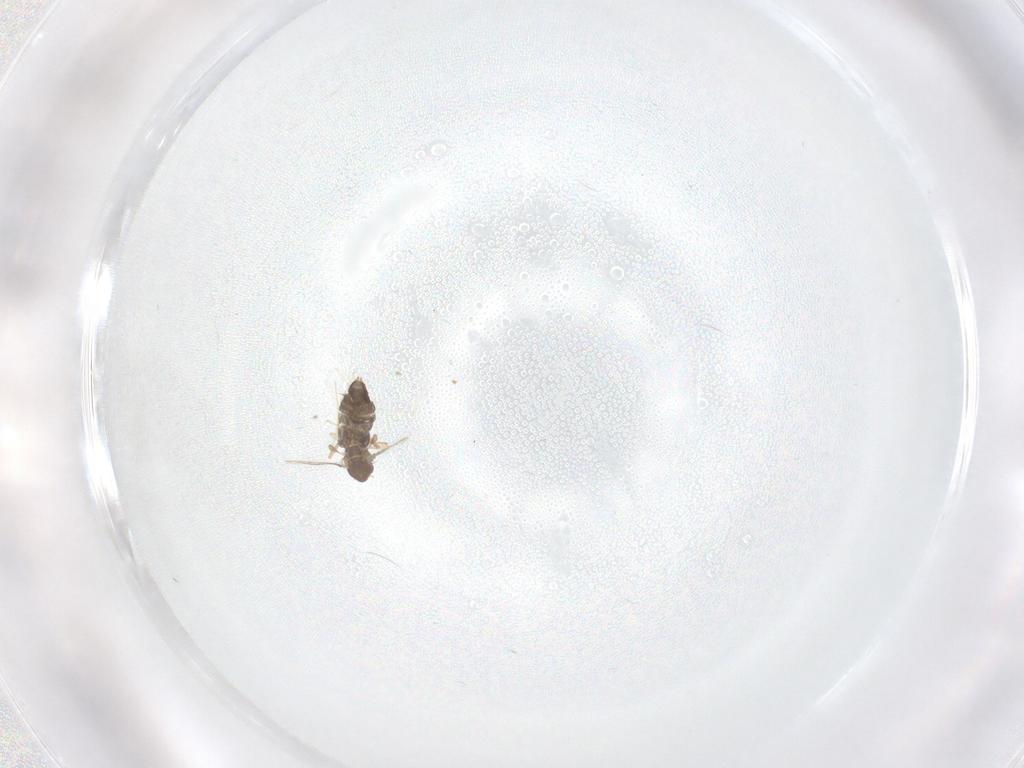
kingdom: Animalia
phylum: Arthropoda
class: Insecta
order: Diptera
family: Chironomidae
